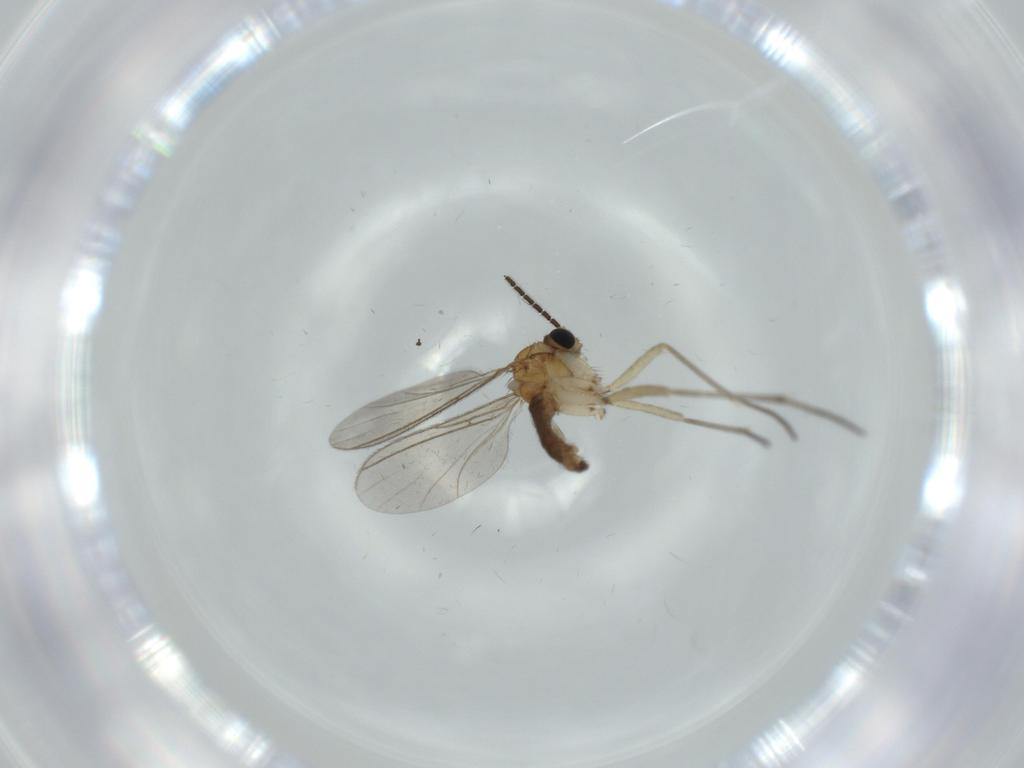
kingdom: Animalia
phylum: Arthropoda
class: Insecta
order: Diptera
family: Sciaridae
